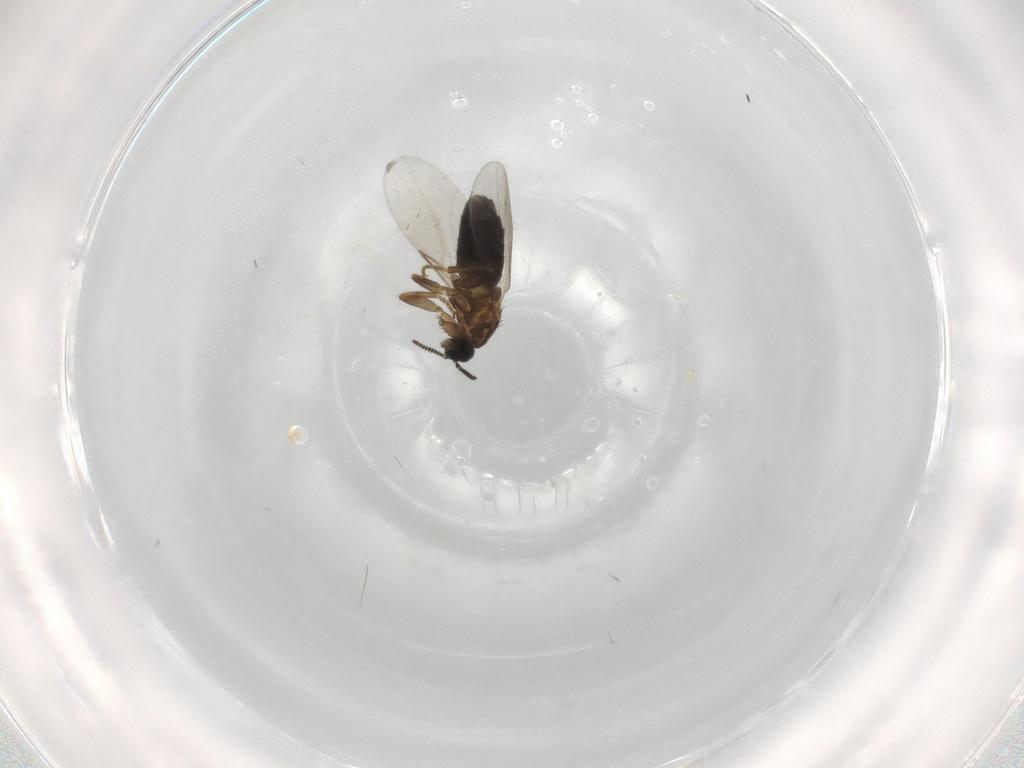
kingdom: Animalia
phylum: Arthropoda
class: Insecta
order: Diptera
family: Scatopsidae
